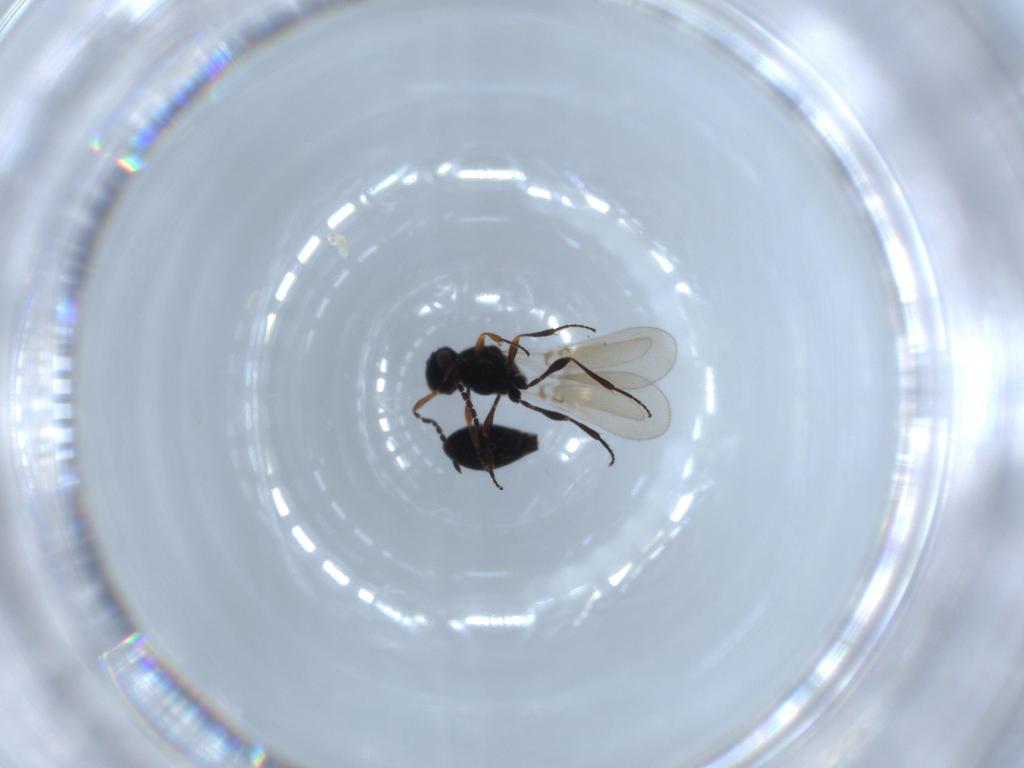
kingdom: Animalia
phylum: Arthropoda
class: Insecta
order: Hymenoptera
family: Platygastridae
